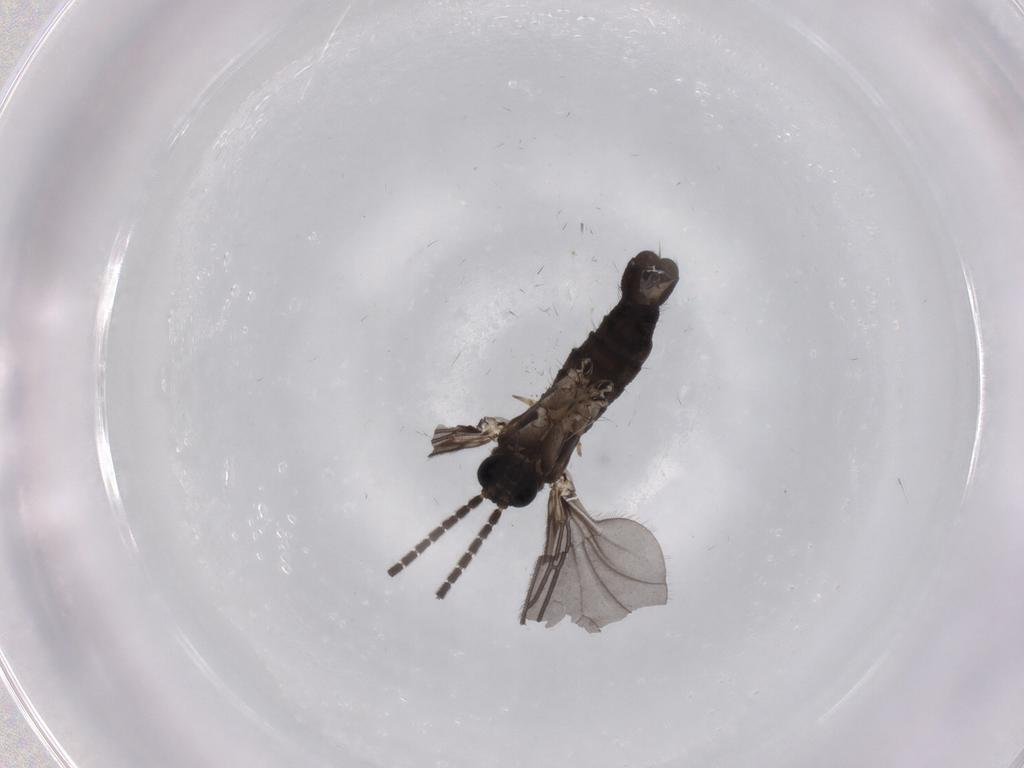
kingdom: Animalia
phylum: Arthropoda
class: Insecta
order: Diptera
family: Sciaridae
